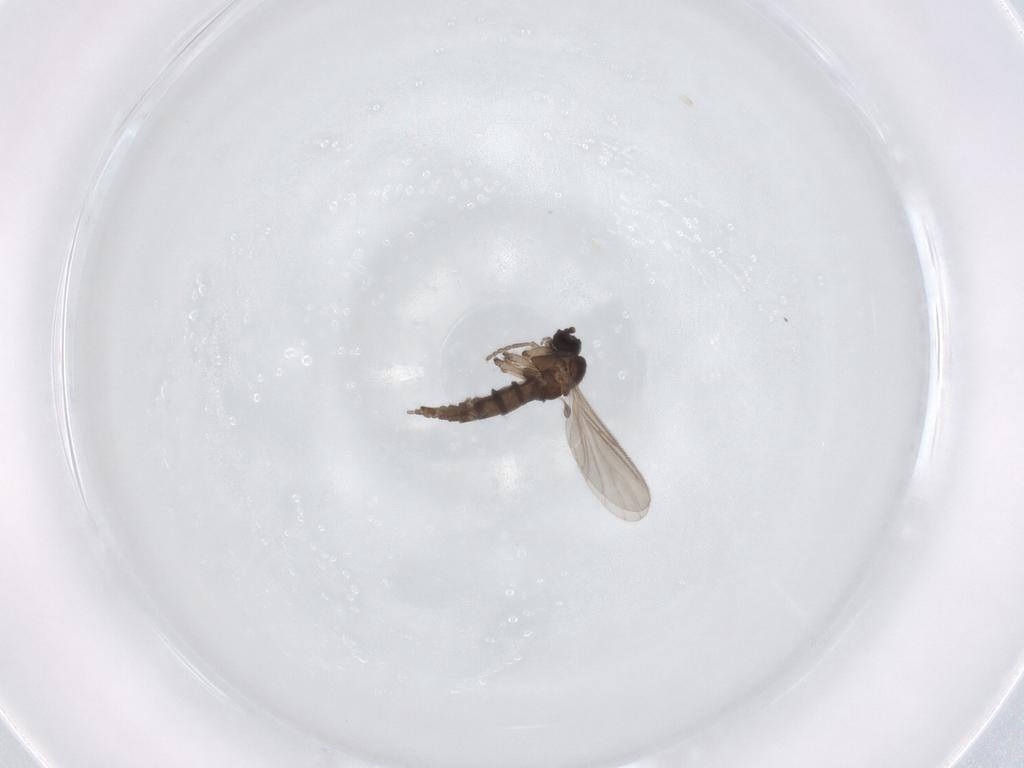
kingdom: Animalia
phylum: Arthropoda
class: Insecta
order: Diptera
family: Sciaridae
